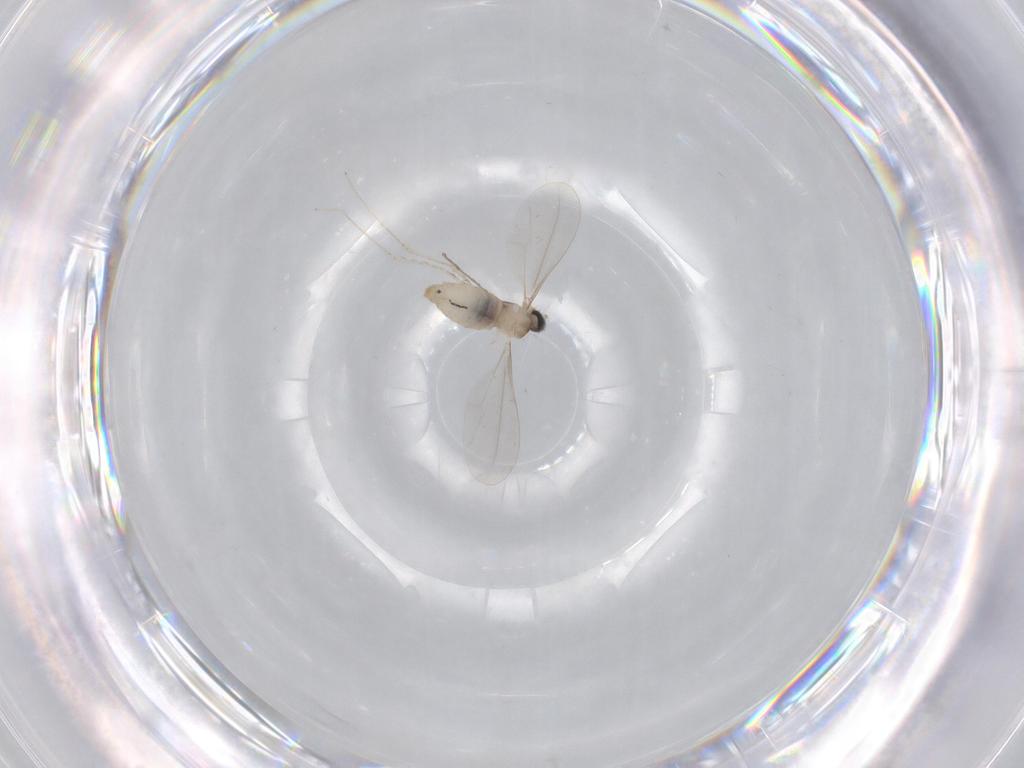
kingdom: Animalia
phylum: Arthropoda
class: Insecta
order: Diptera
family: Cecidomyiidae
